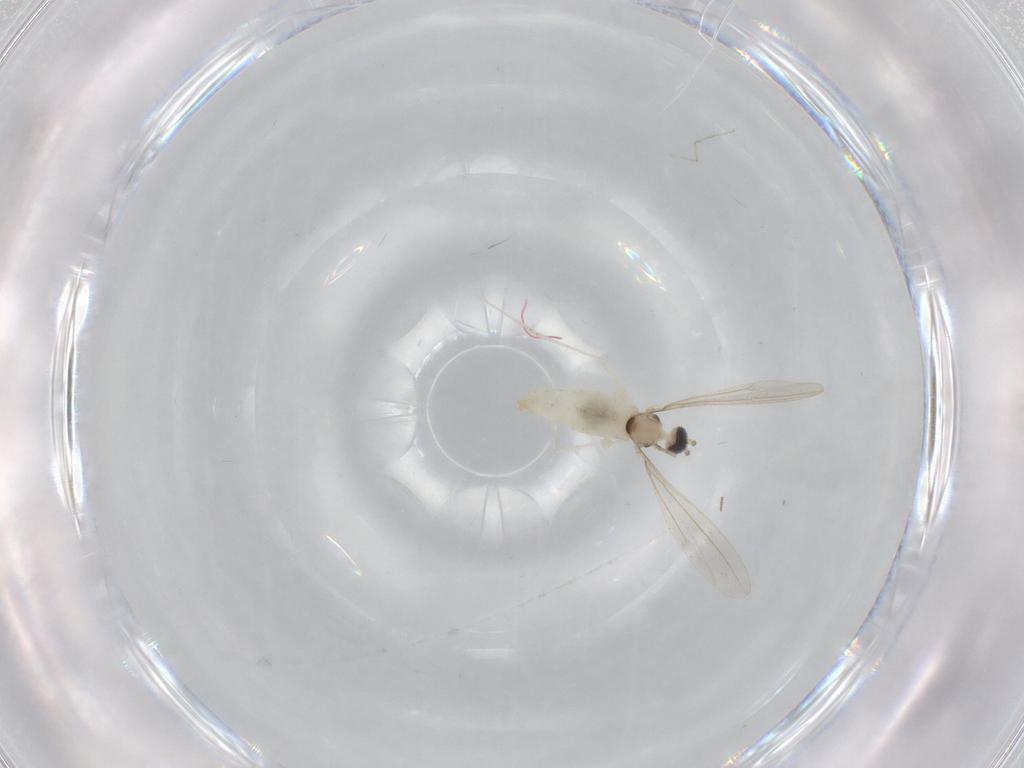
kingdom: Animalia
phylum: Arthropoda
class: Insecta
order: Diptera
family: Cecidomyiidae
